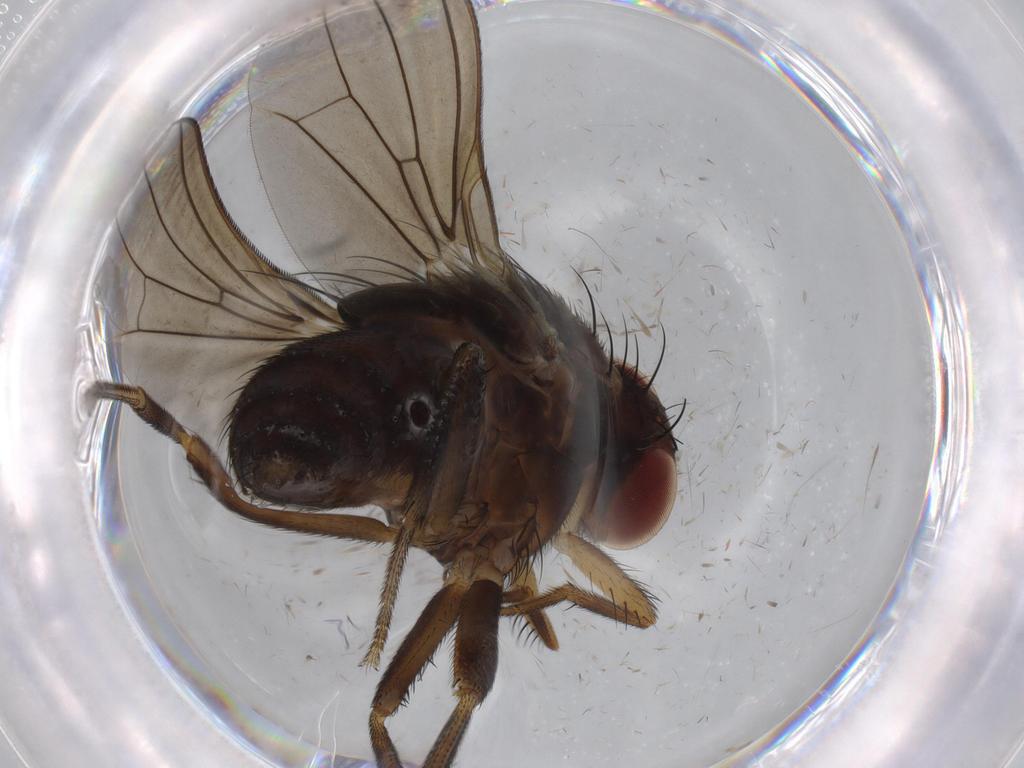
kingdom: Animalia
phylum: Arthropoda
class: Insecta
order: Diptera
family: Chironomidae
